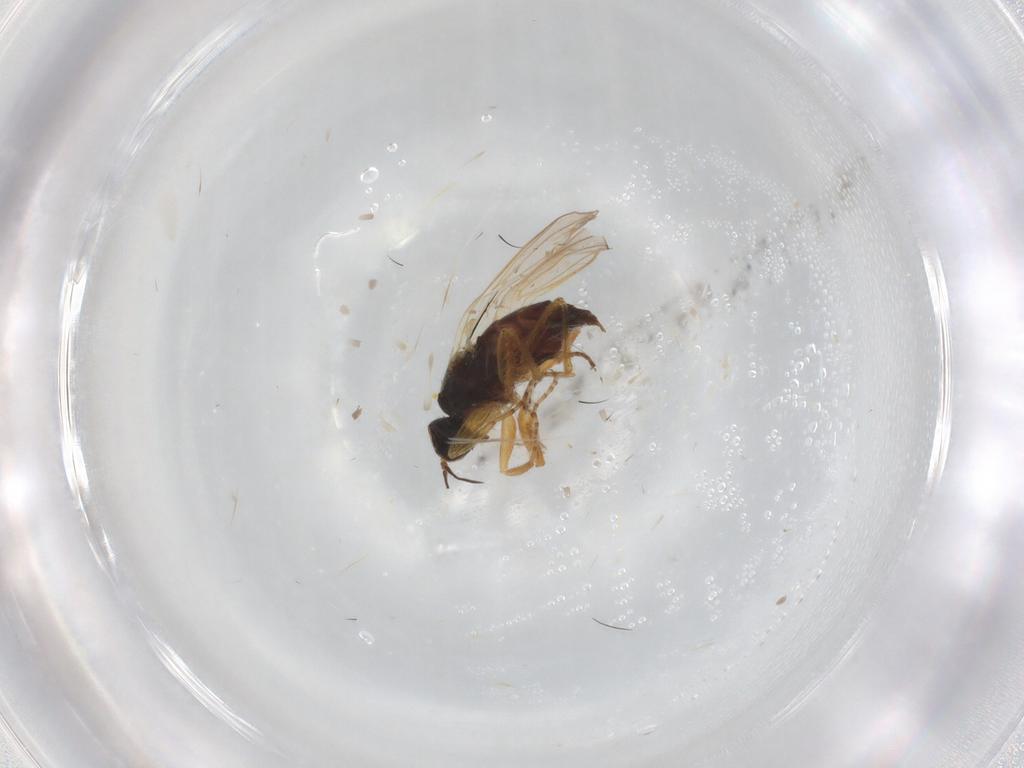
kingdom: Animalia
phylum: Arthropoda
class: Insecta
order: Diptera
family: Hybotidae
